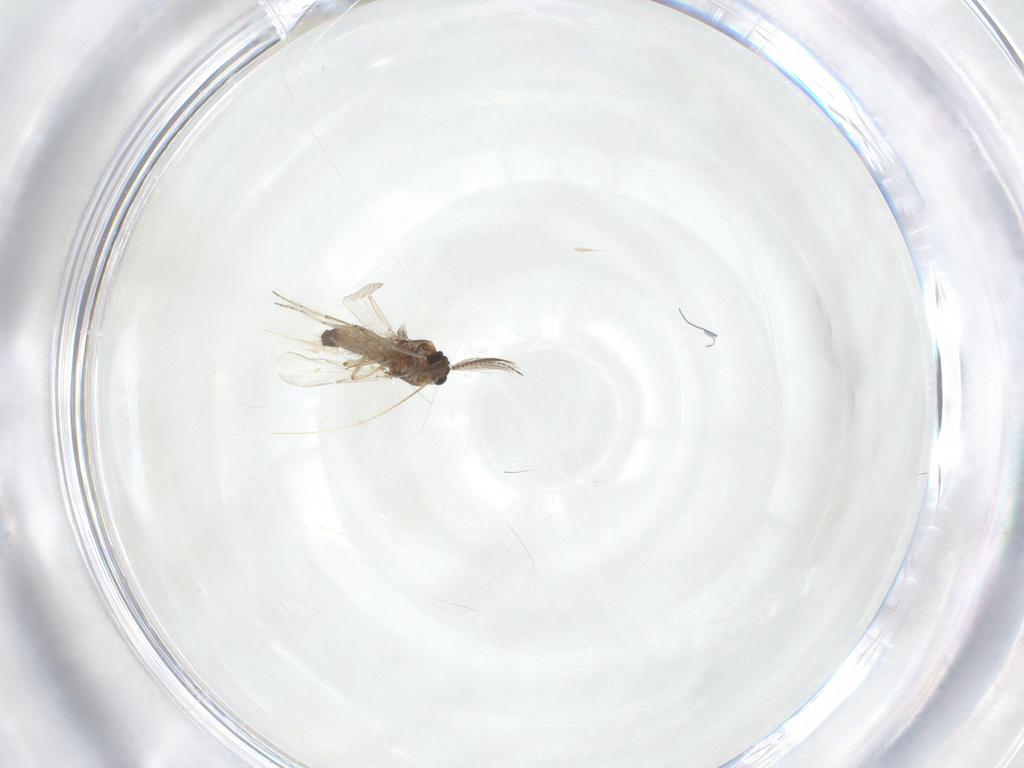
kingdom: Animalia
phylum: Arthropoda
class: Insecta
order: Diptera
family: Ceratopogonidae
